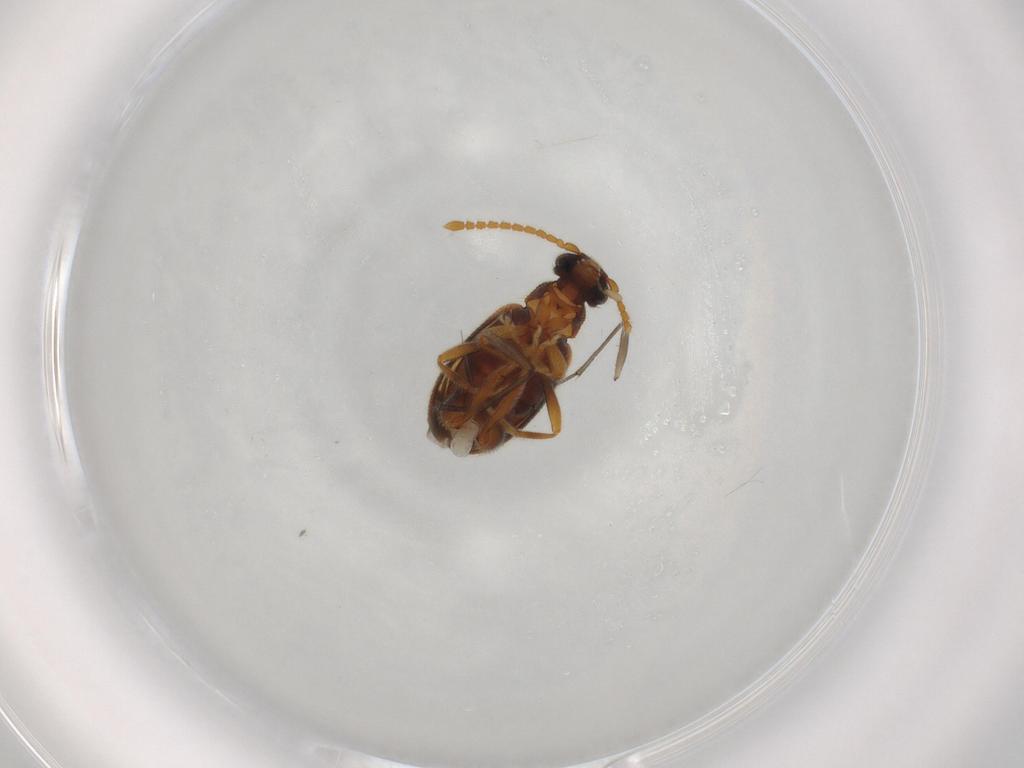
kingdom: Animalia
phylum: Arthropoda
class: Insecta
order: Coleoptera
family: Aderidae
